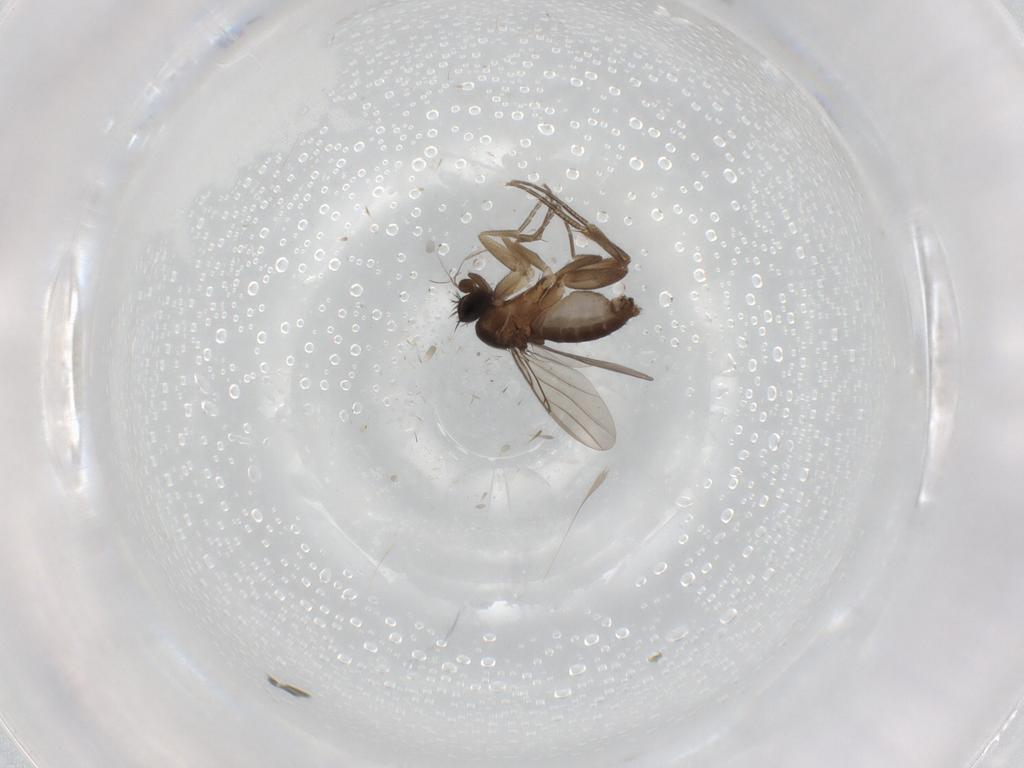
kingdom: Animalia
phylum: Arthropoda
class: Insecta
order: Diptera
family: Phoridae
